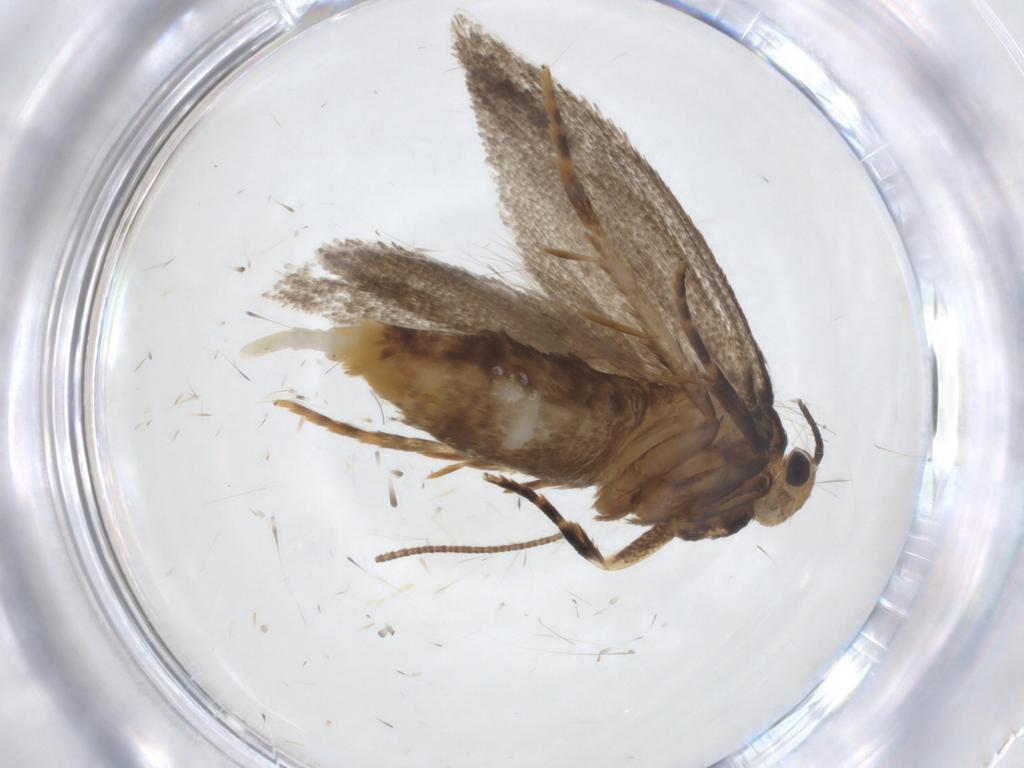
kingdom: Animalia
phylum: Arthropoda
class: Insecta
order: Lepidoptera
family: Oecophoridae
